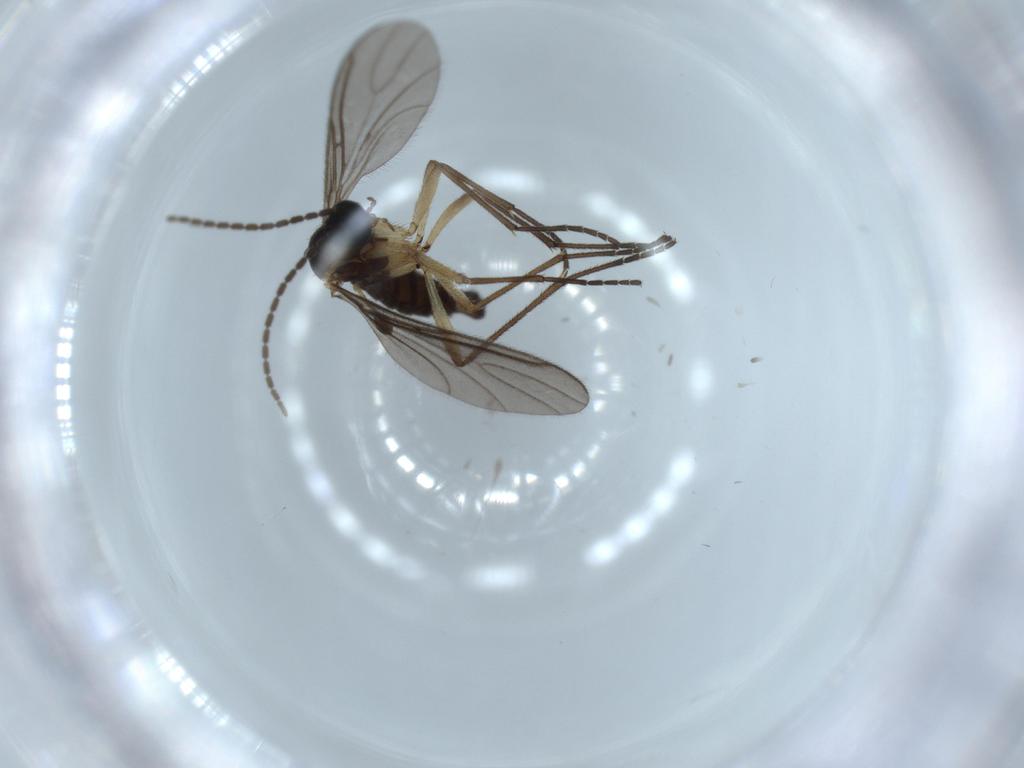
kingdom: Animalia
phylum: Arthropoda
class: Insecta
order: Diptera
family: Sciaridae
